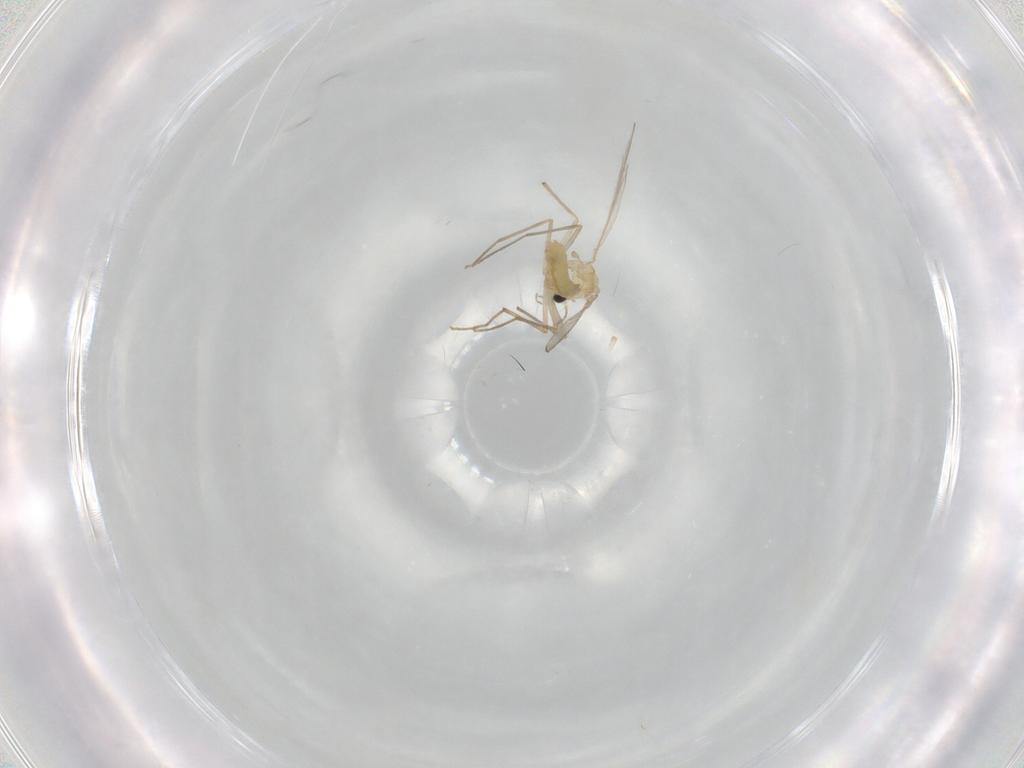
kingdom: Animalia
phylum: Arthropoda
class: Insecta
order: Diptera
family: Chironomidae
